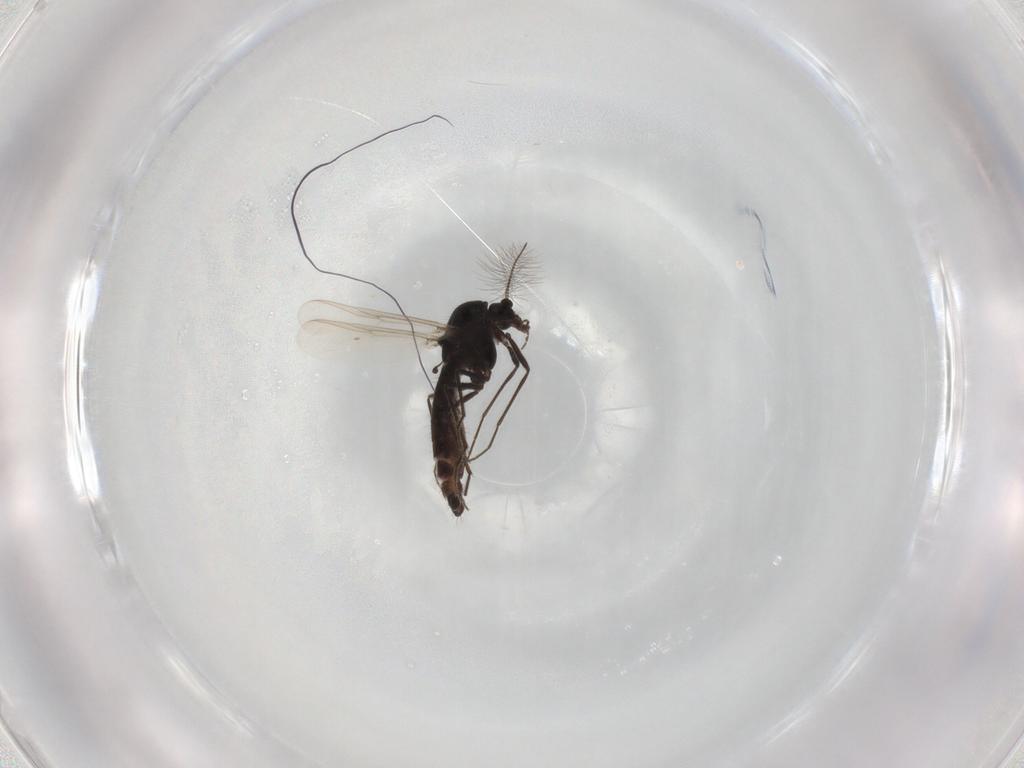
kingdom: Animalia
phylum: Arthropoda
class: Insecta
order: Diptera
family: Chironomidae
